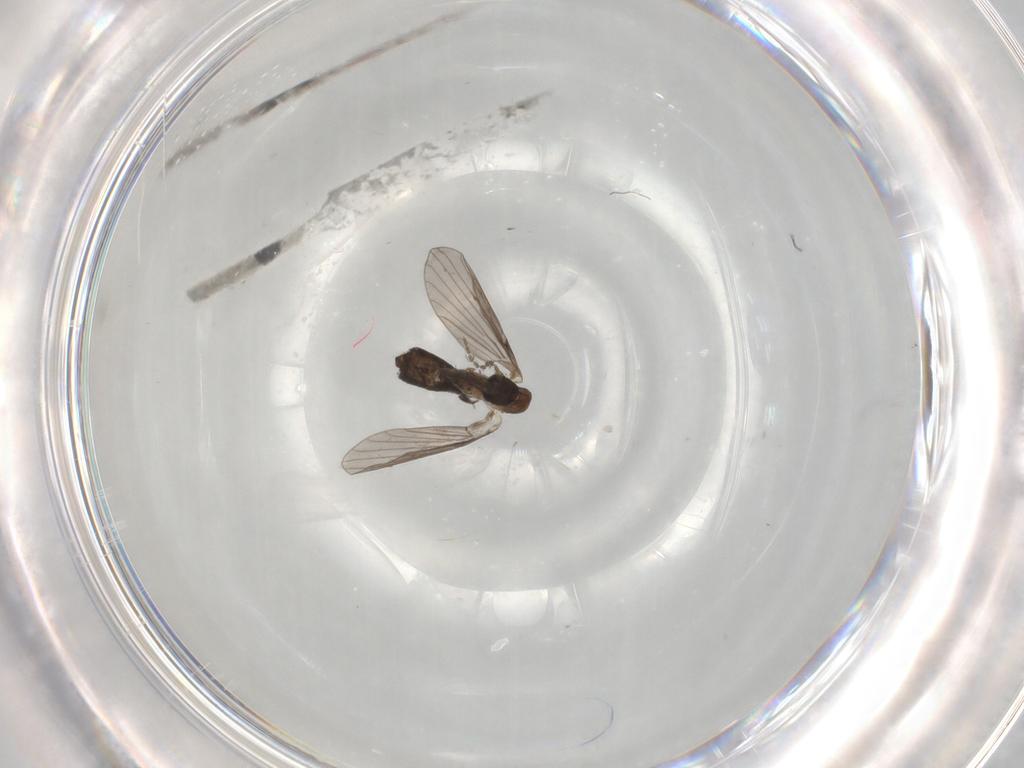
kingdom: Animalia
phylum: Arthropoda
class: Insecta
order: Diptera
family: Psychodidae
